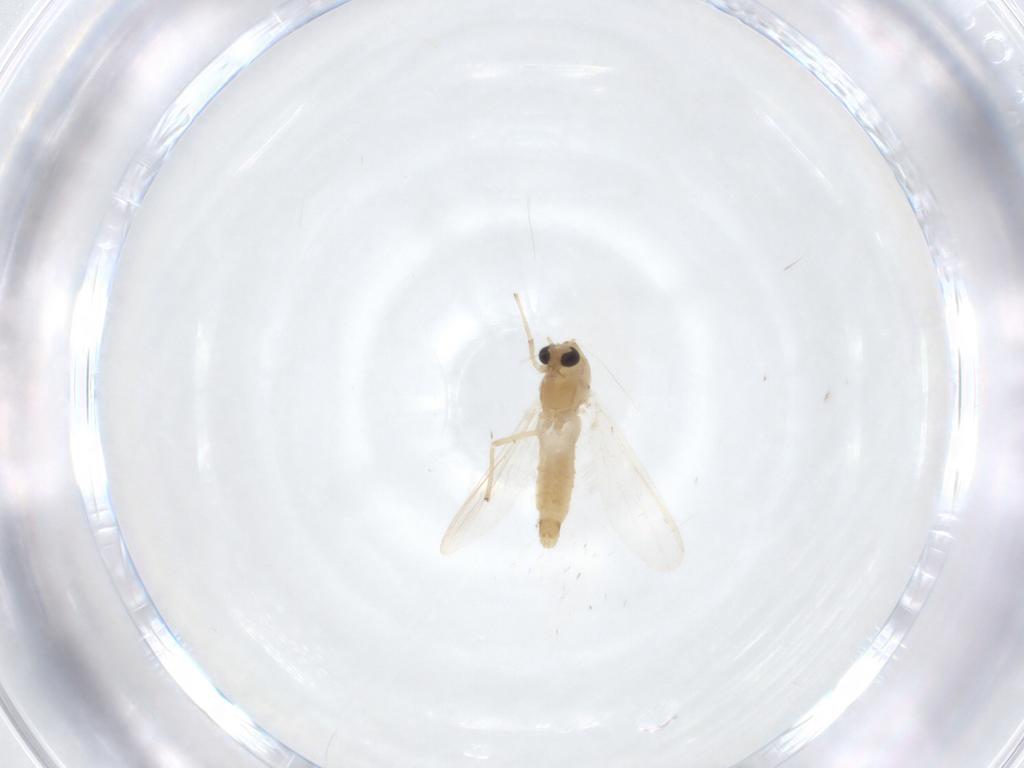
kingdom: Animalia
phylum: Arthropoda
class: Insecta
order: Diptera
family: Chironomidae
